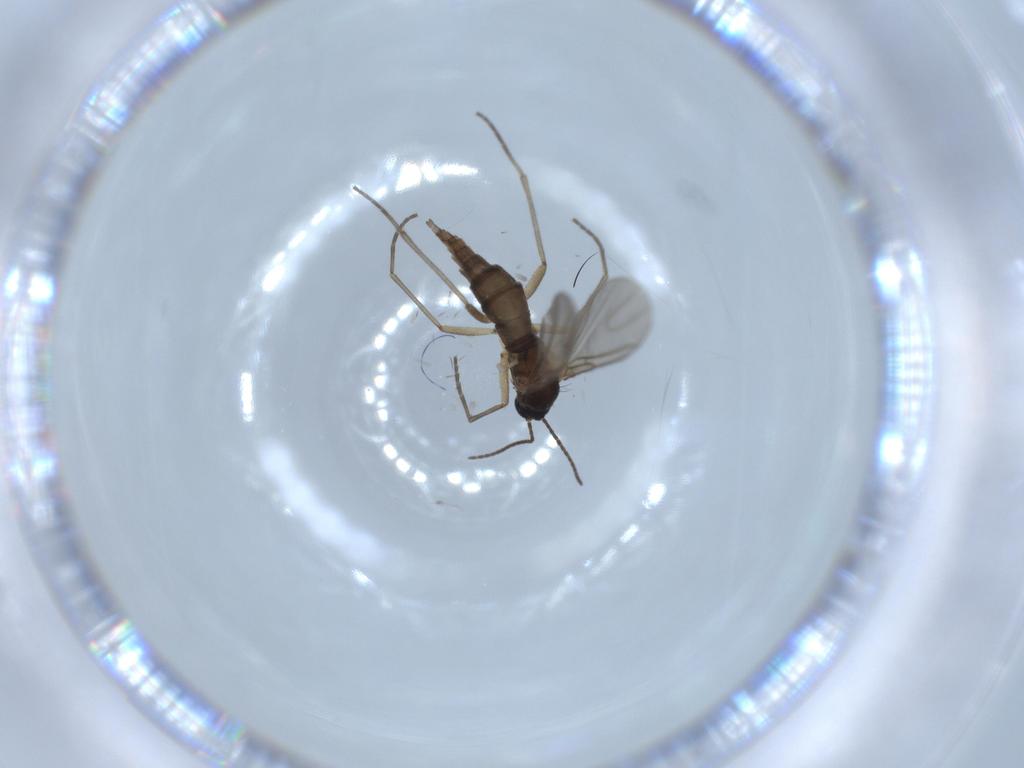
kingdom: Animalia
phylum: Arthropoda
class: Insecta
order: Diptera
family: Sciaridae
